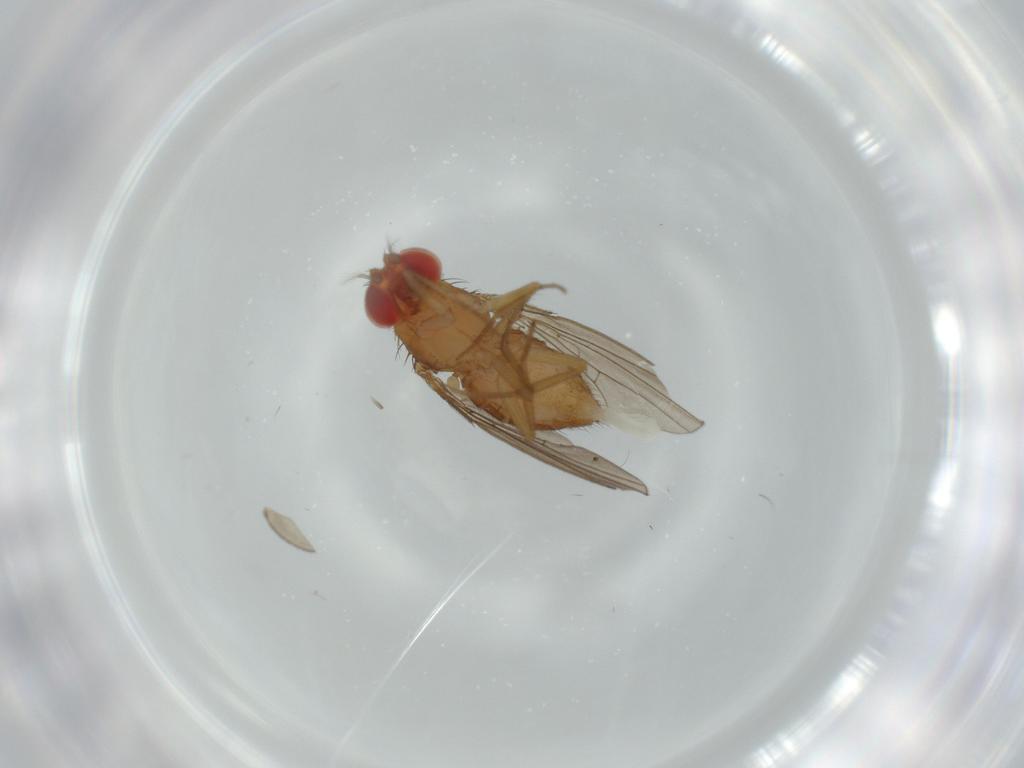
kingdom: Animalia
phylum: Arthropoda
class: Insecta
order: Diptera
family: Drosophilidae
